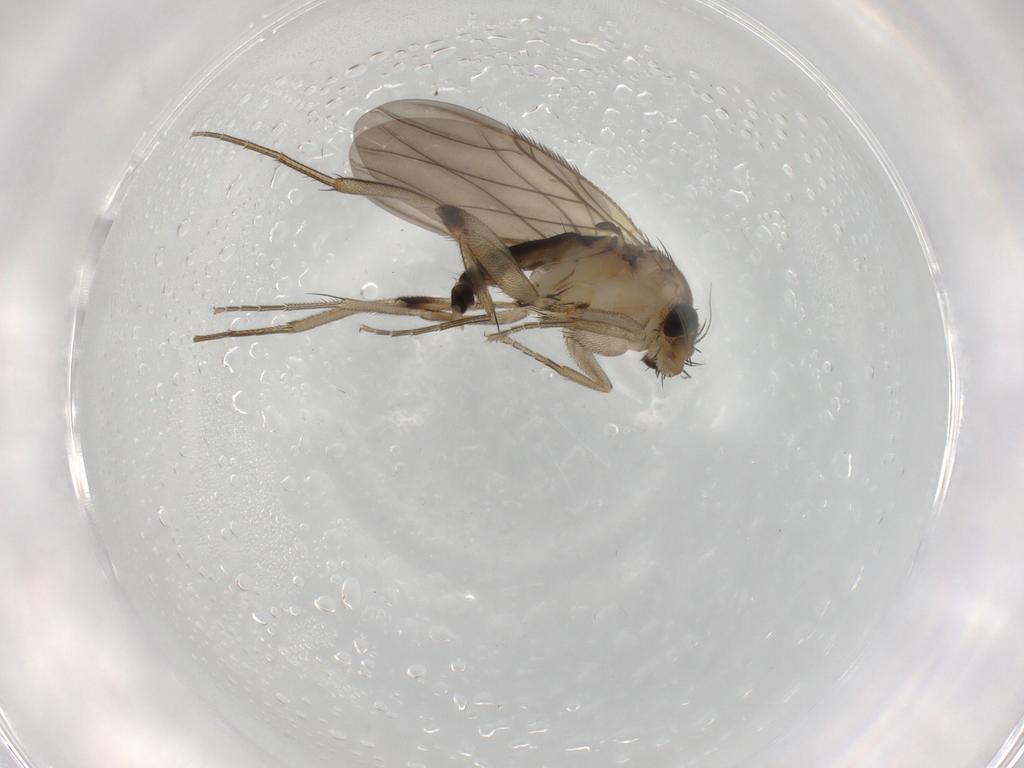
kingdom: Animalia
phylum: Arthropoda
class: Insecta
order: Diptera
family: Phoridae
